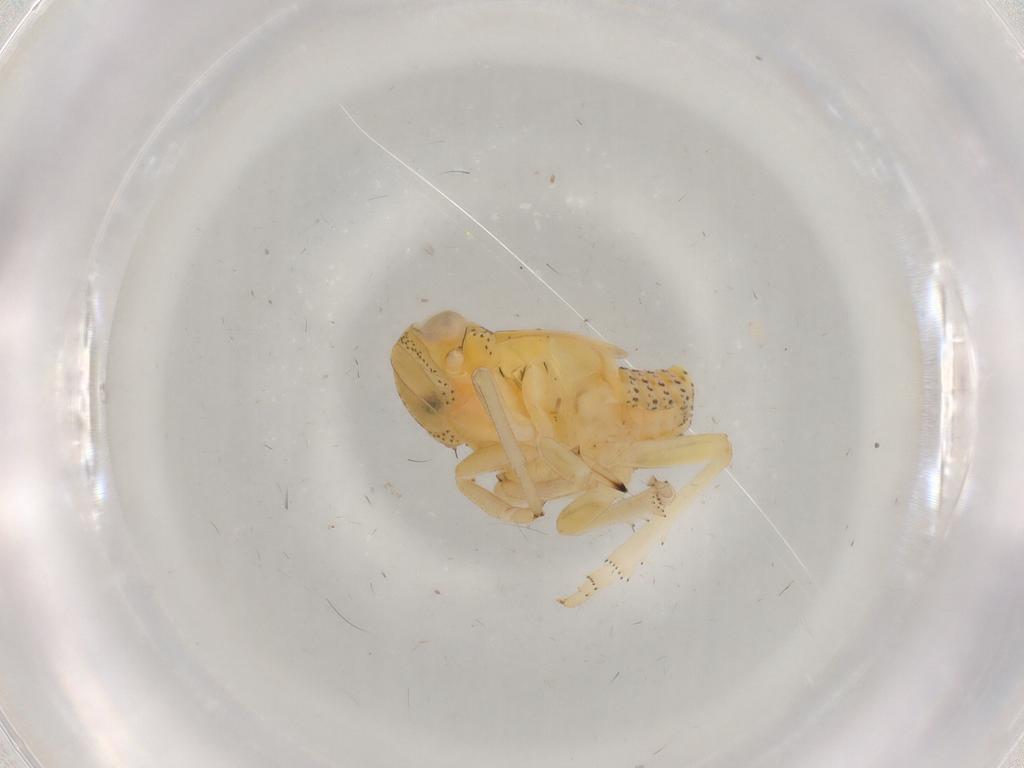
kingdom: Animalia
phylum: Arthropoda
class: Insecta
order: Hemiptera
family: Tropiduchidae
